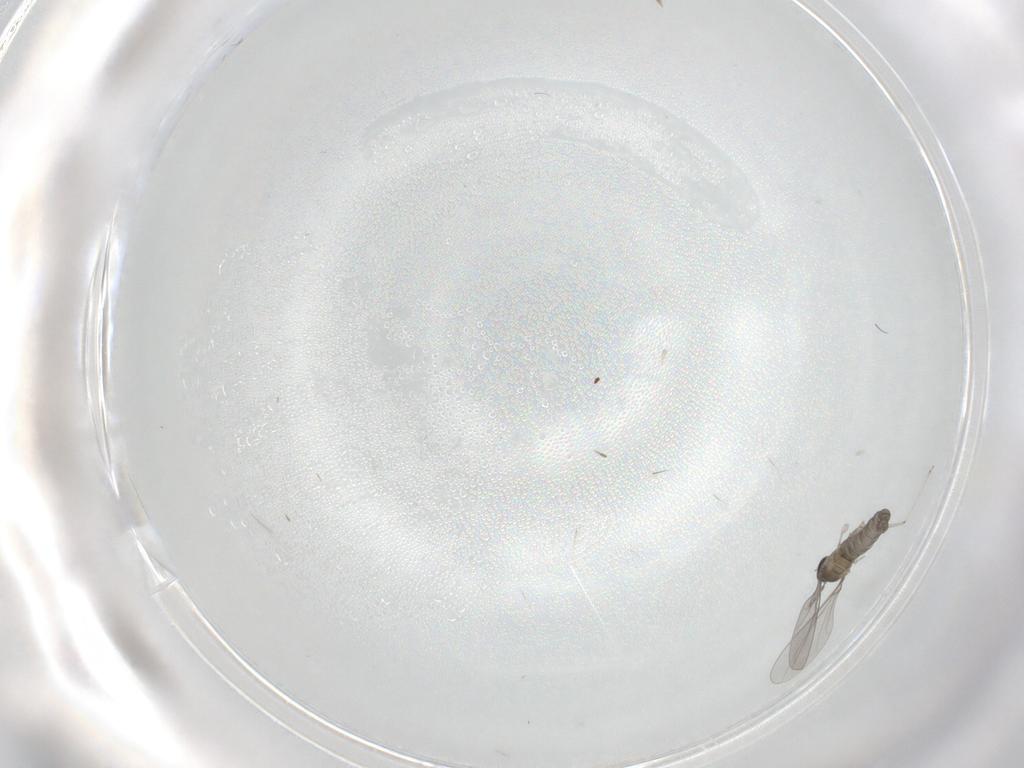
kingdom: Animalia
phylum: Arthropoda
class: Insecta
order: Diptera
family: Cecidomyiidae
